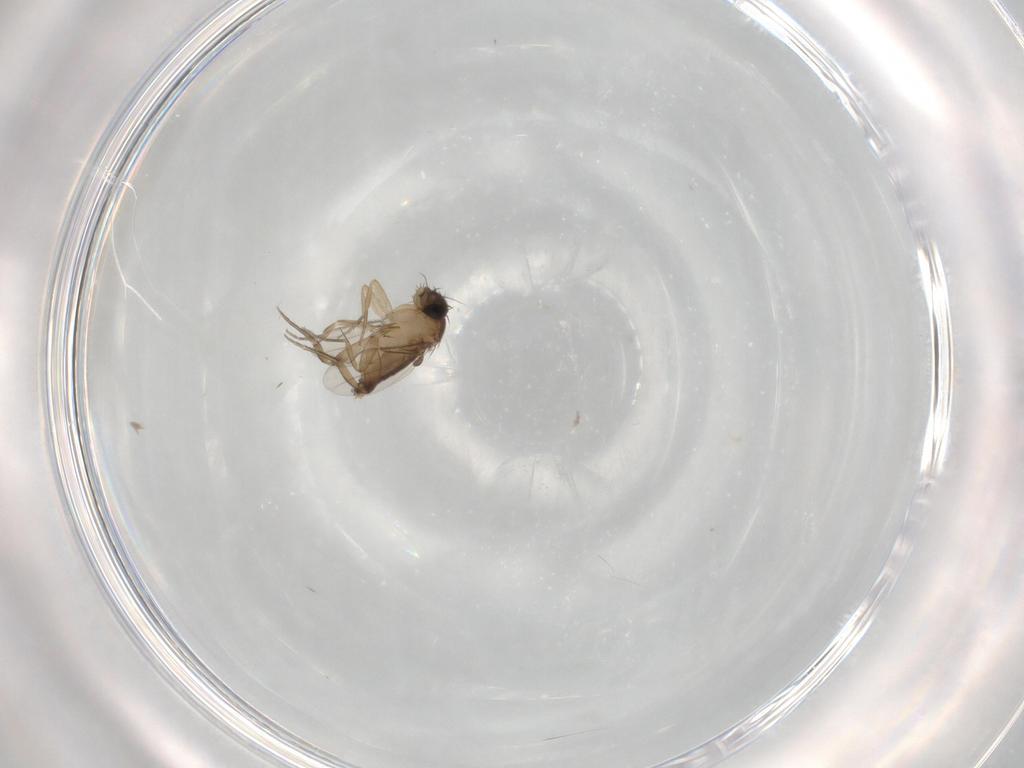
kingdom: Animalia
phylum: Arthropoda
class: Insecta
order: Diptera
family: Phoridae
